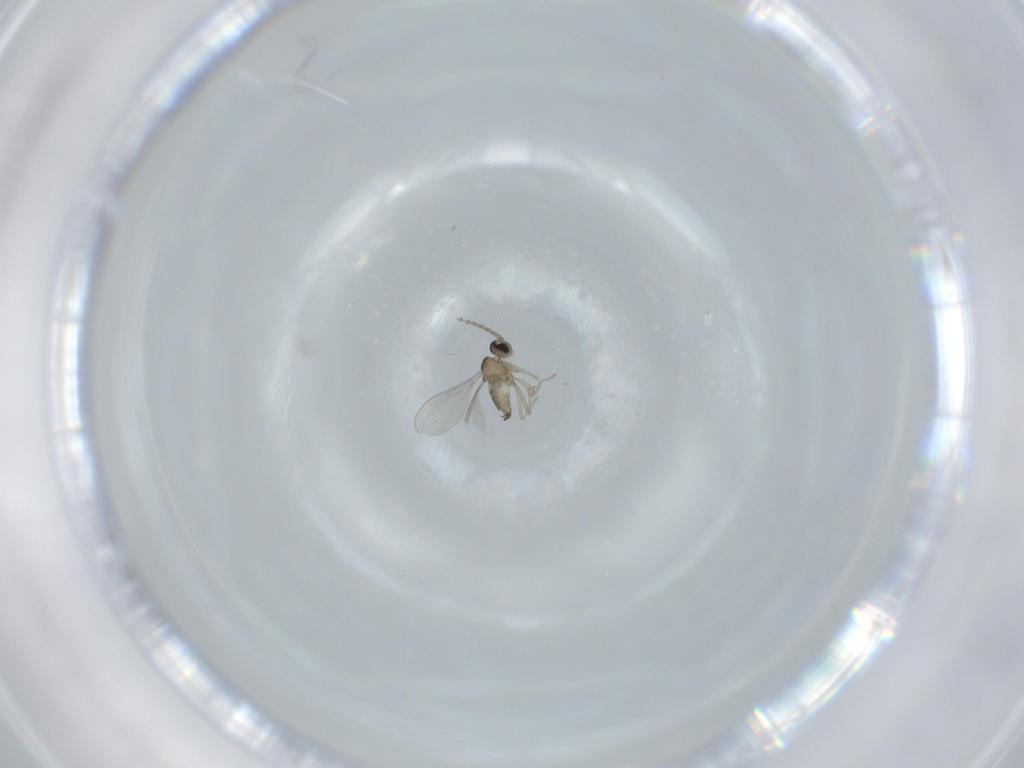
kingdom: Animalia
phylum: Arthropoda
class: Insecta
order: Diptera
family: Cecidomyiidae
